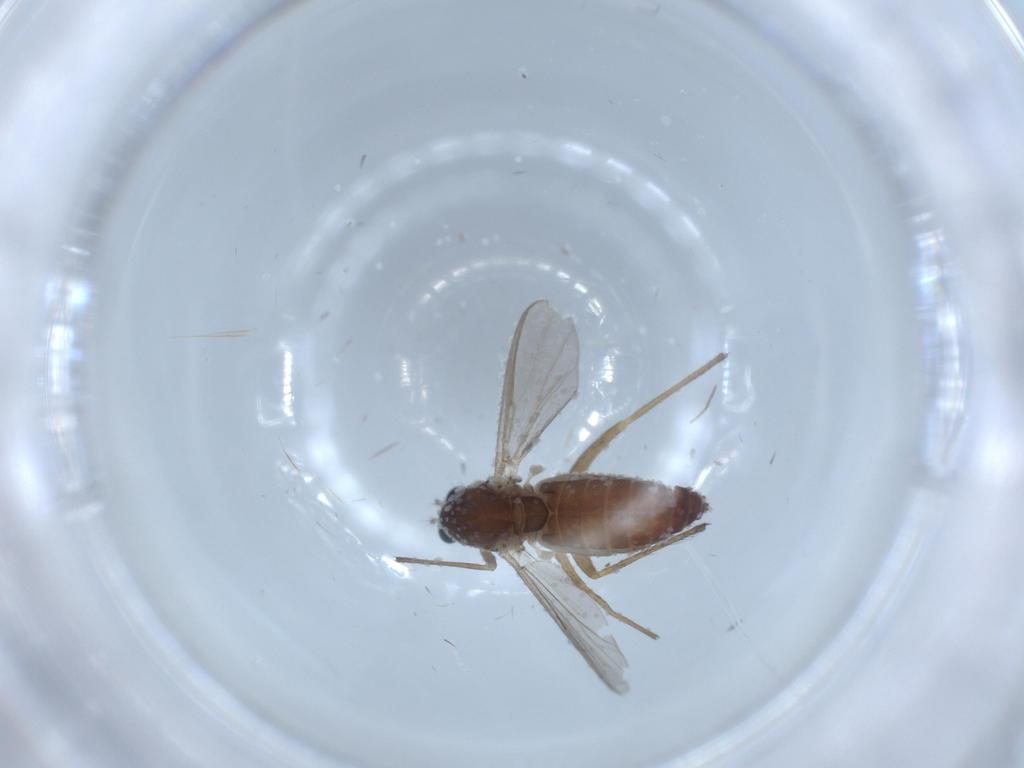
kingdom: Animalia
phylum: Arthropoda
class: Insecta
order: Diptera
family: Chironomidae
